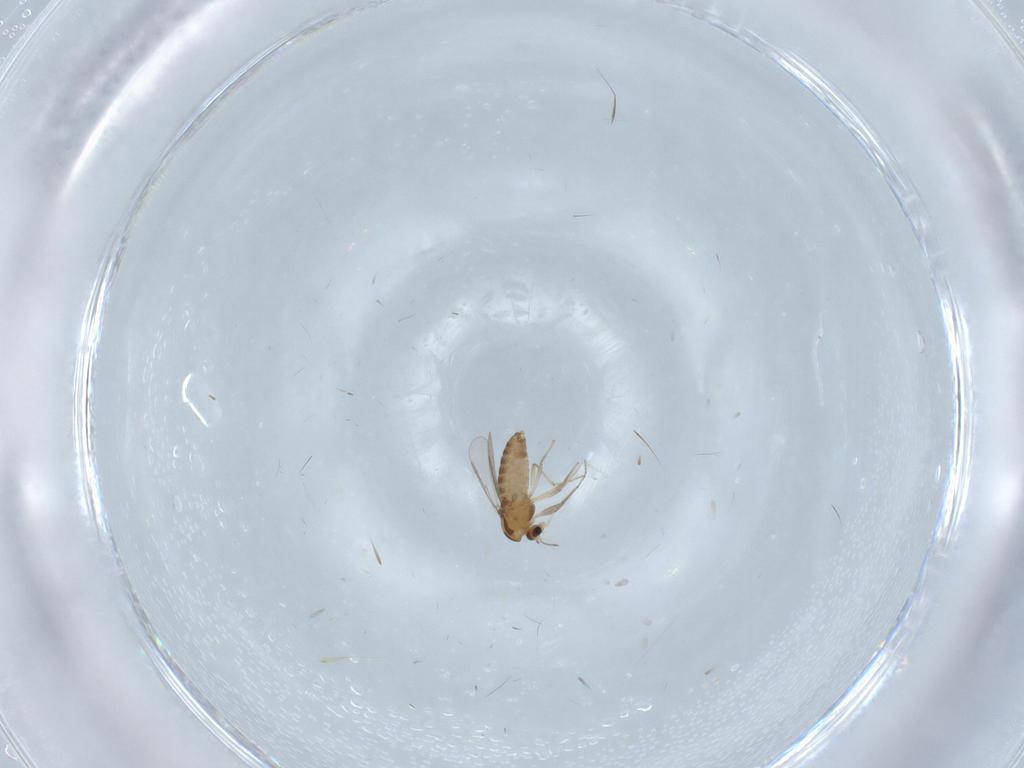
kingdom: Animalia
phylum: Arthropoda
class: Insecta
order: Diptera
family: Chironomidae
